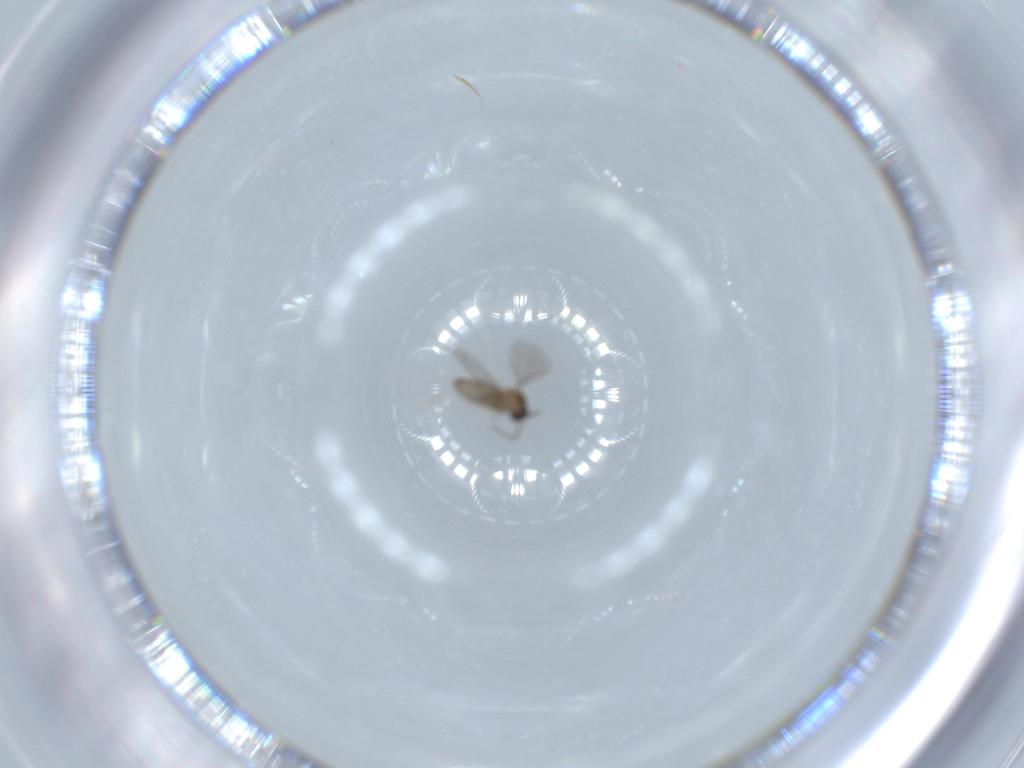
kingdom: Animalia
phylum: Arthropoda
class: Insecta
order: Diptera
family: Cecidomyiidae
